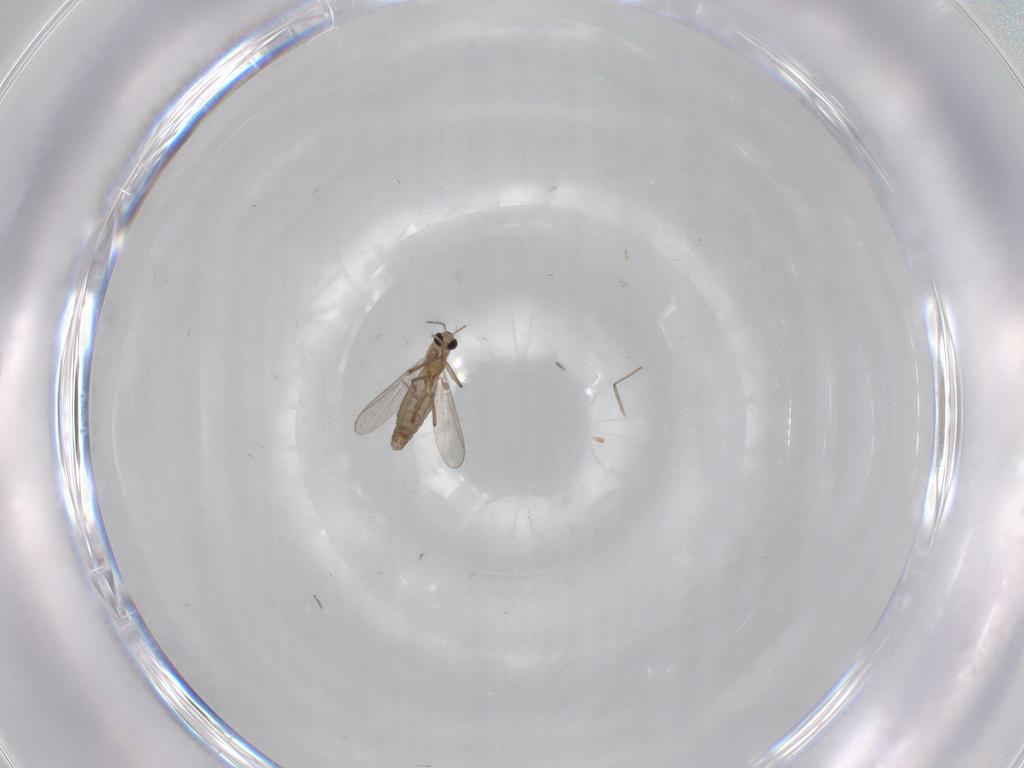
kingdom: Animalia
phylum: Arthropoda
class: Insecta
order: Diptera
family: Chironomidae
